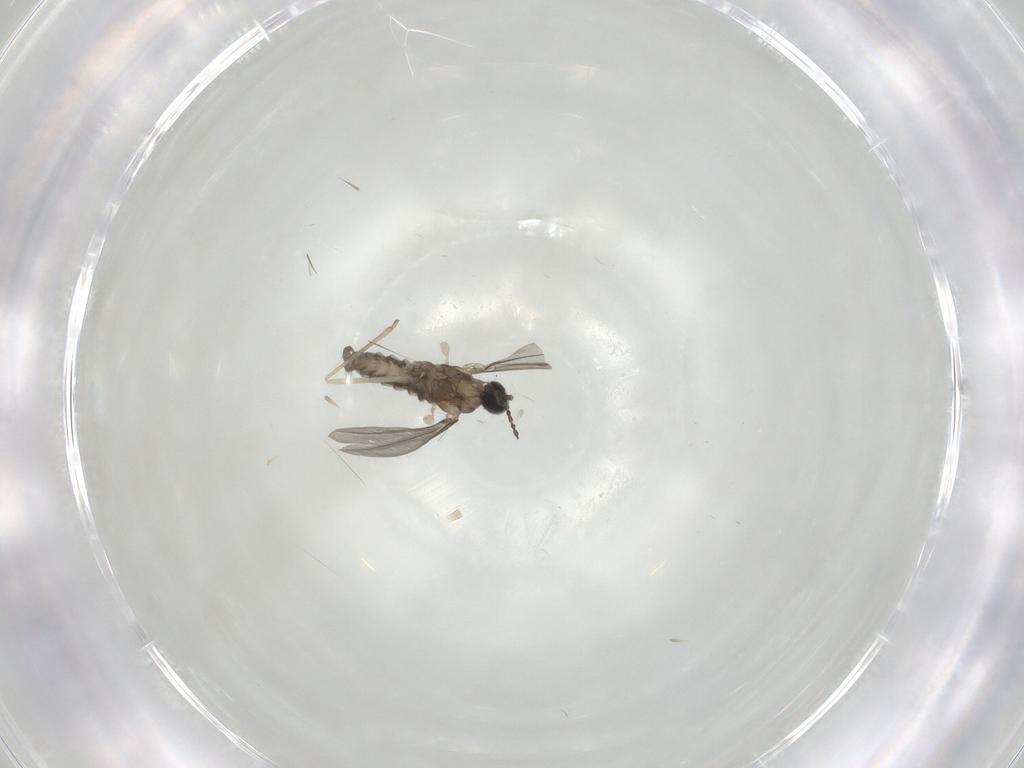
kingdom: Animalia
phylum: Arthropoda
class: Insecta
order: Diptera
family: Cecidomyiidae
